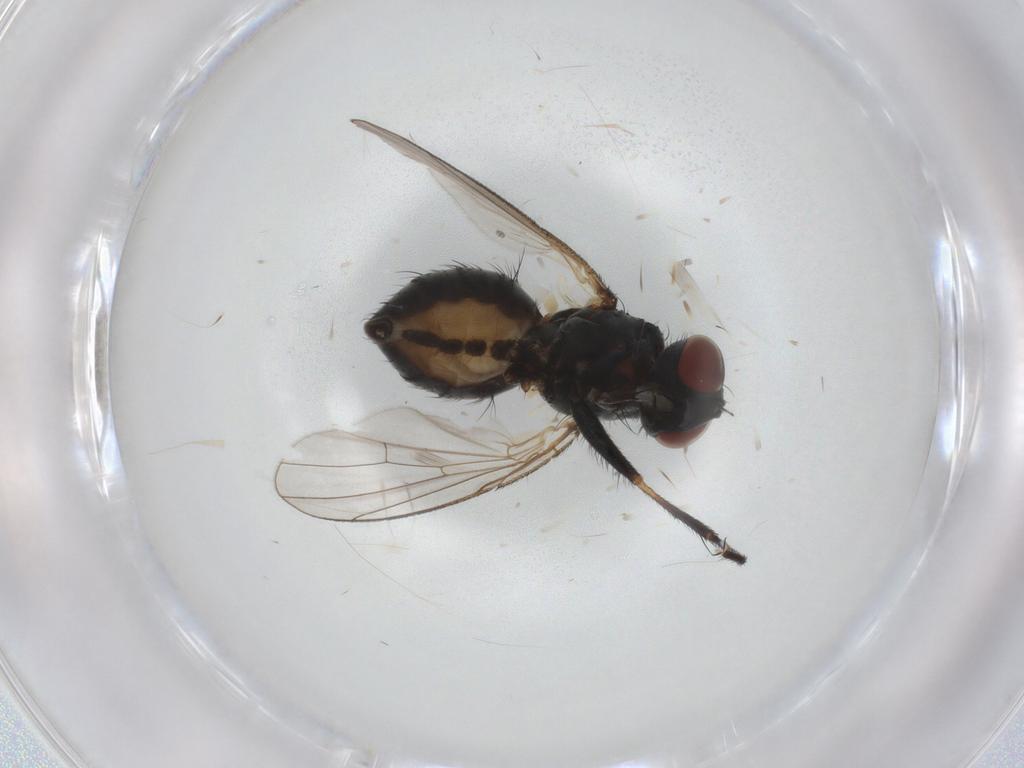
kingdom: Animalia
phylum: Arthropoda
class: Insecta
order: Diptera
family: Muscidae
